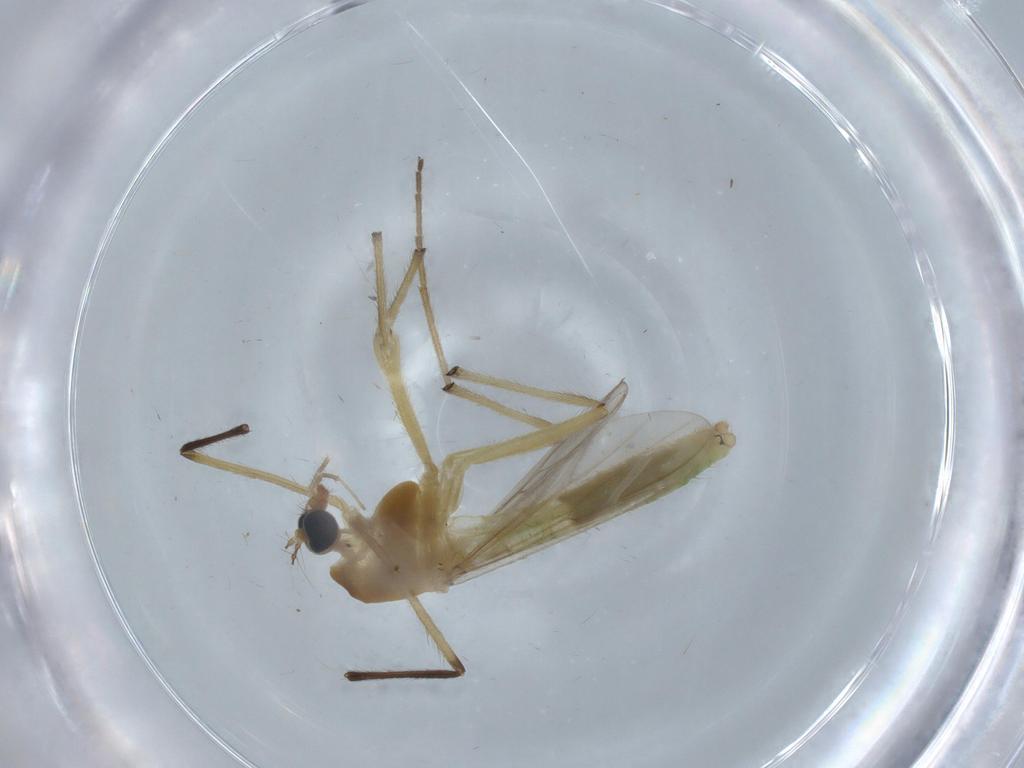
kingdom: Animalia
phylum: Arthropoda
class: Insecta
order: Diptera
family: Chironomidae
